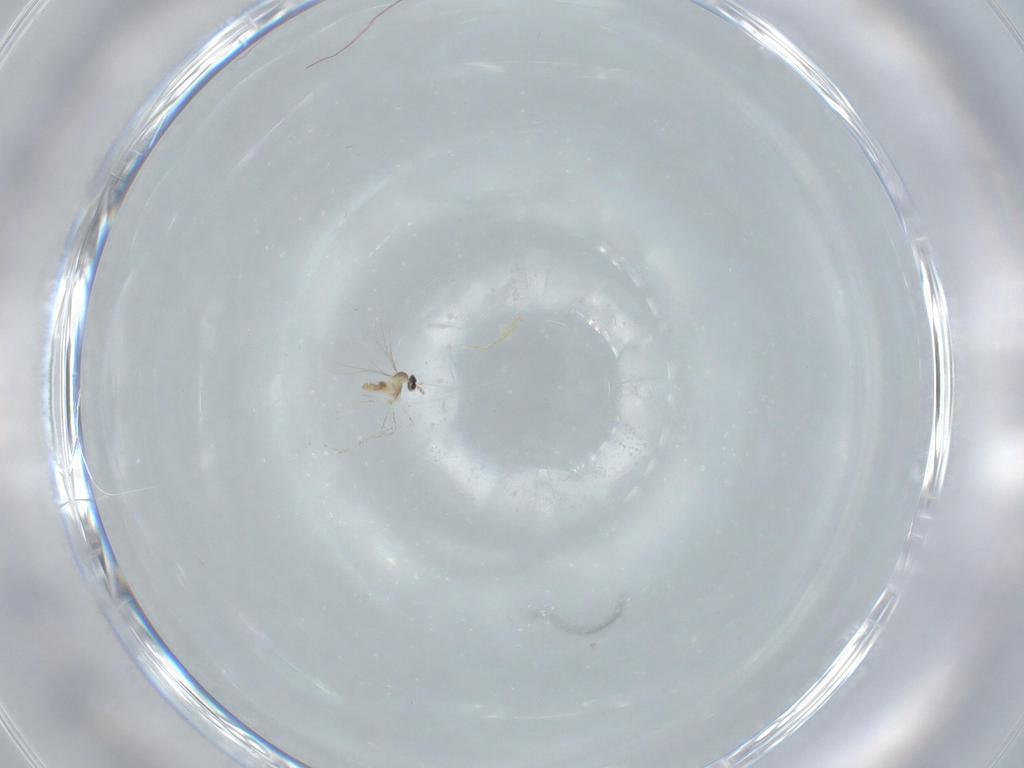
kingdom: Animalia
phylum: Arthropoda
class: Insecta
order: Diptera
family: Cecidomyiidae
